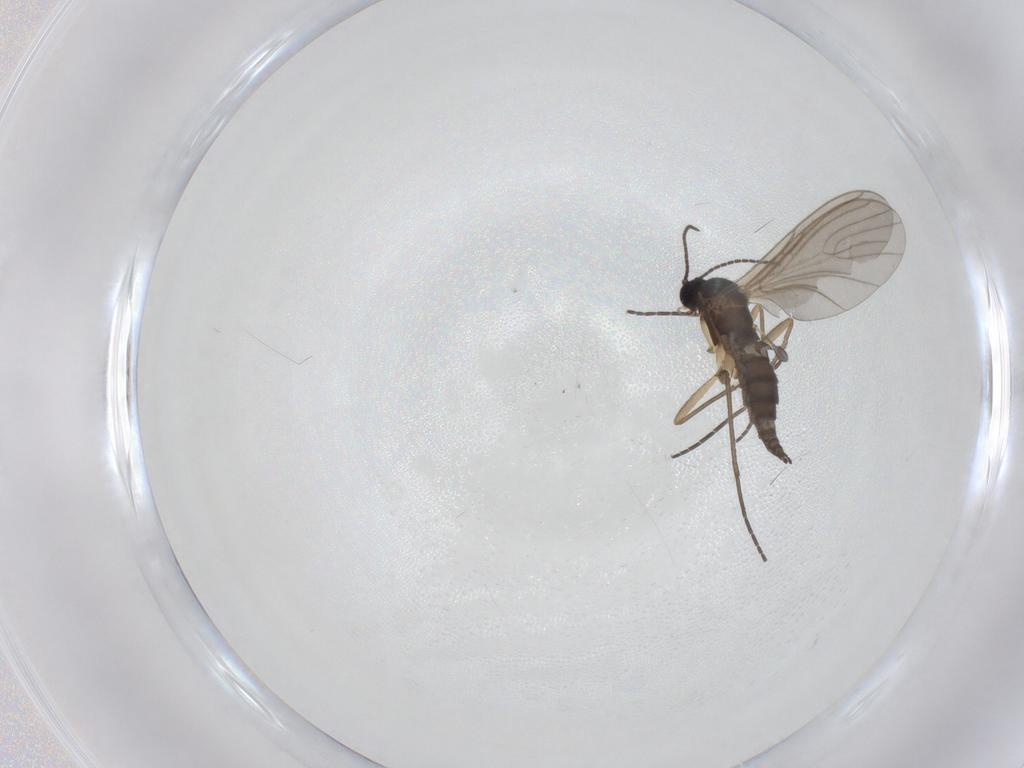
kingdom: Animalia
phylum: Arthropoda
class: Insecta
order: Diptera
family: Sciaridae
